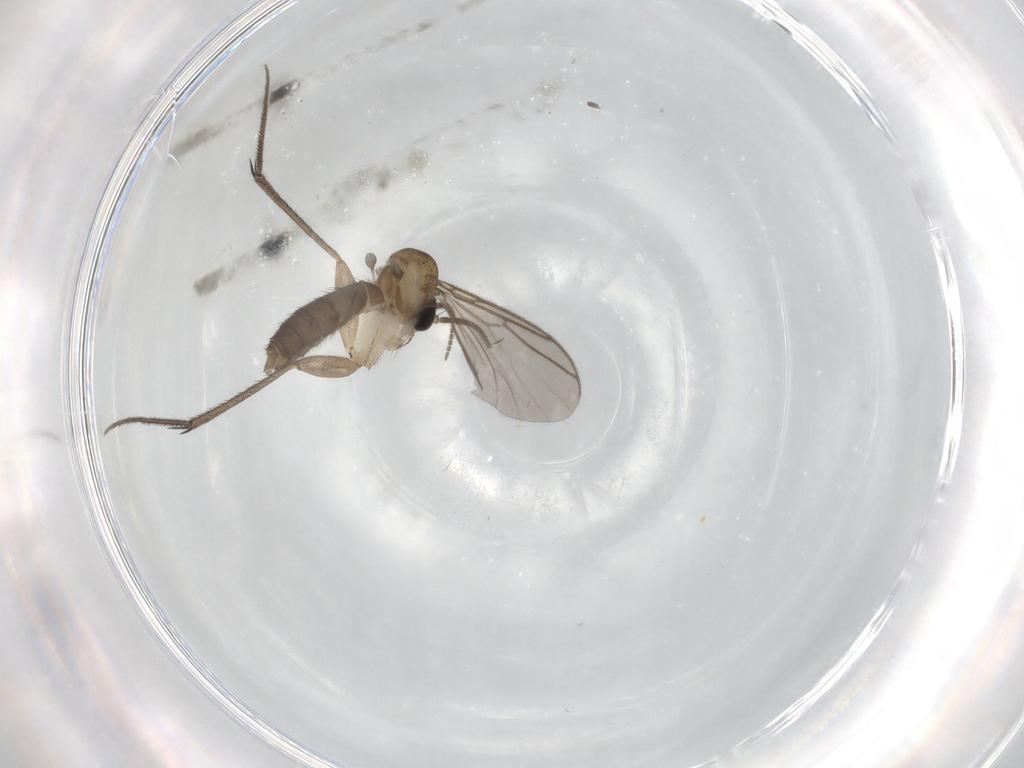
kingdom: Animalia
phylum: Arthropoda
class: Insecta
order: Diptera
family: Mycetophilidae
